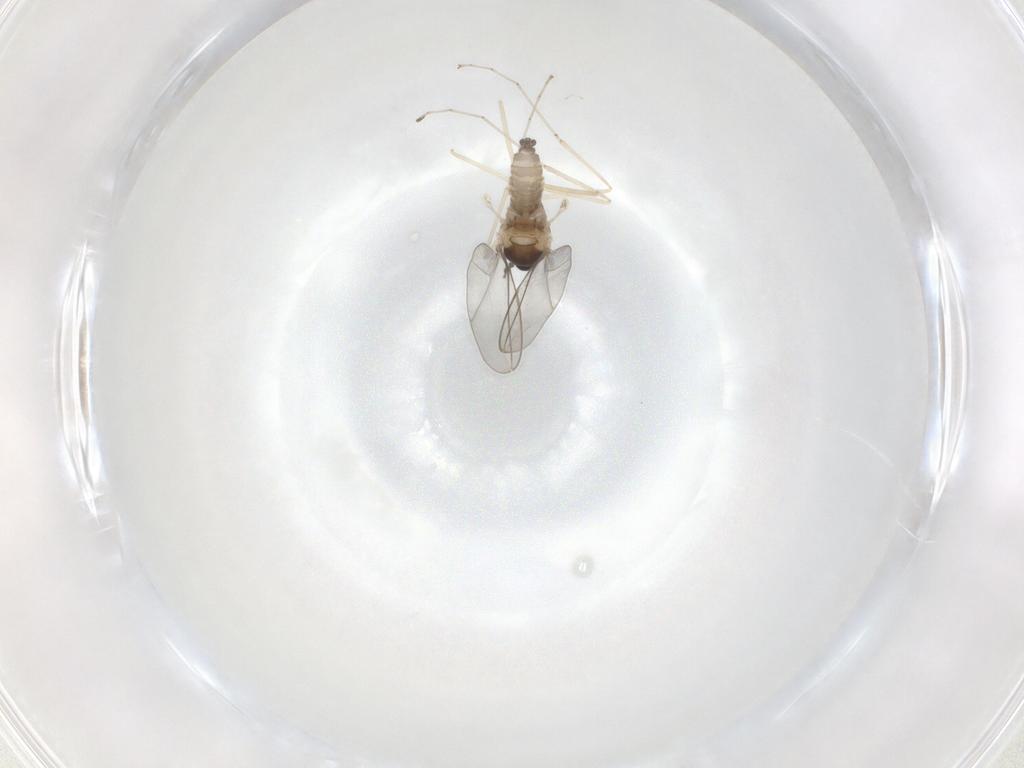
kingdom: Animalia
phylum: Arthropoda
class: Insecta
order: Diptera
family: Cecidomyiidae
